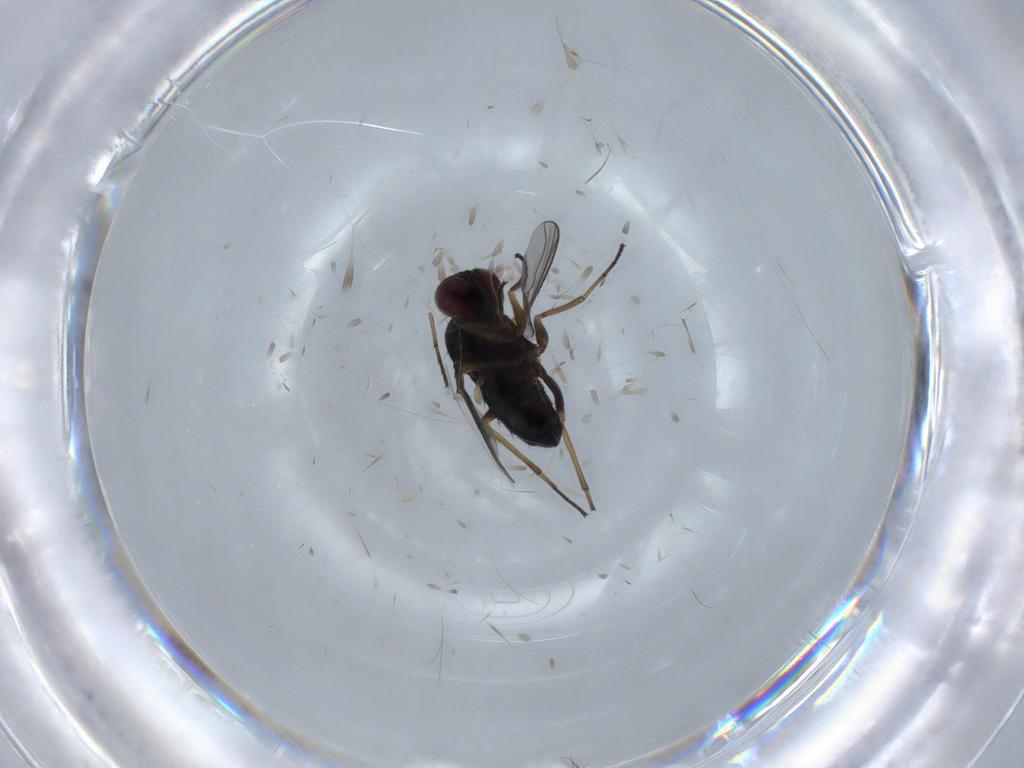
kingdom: Animalia
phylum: Arthropoda
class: Insecta
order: Diptera
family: Dolichopodidae
